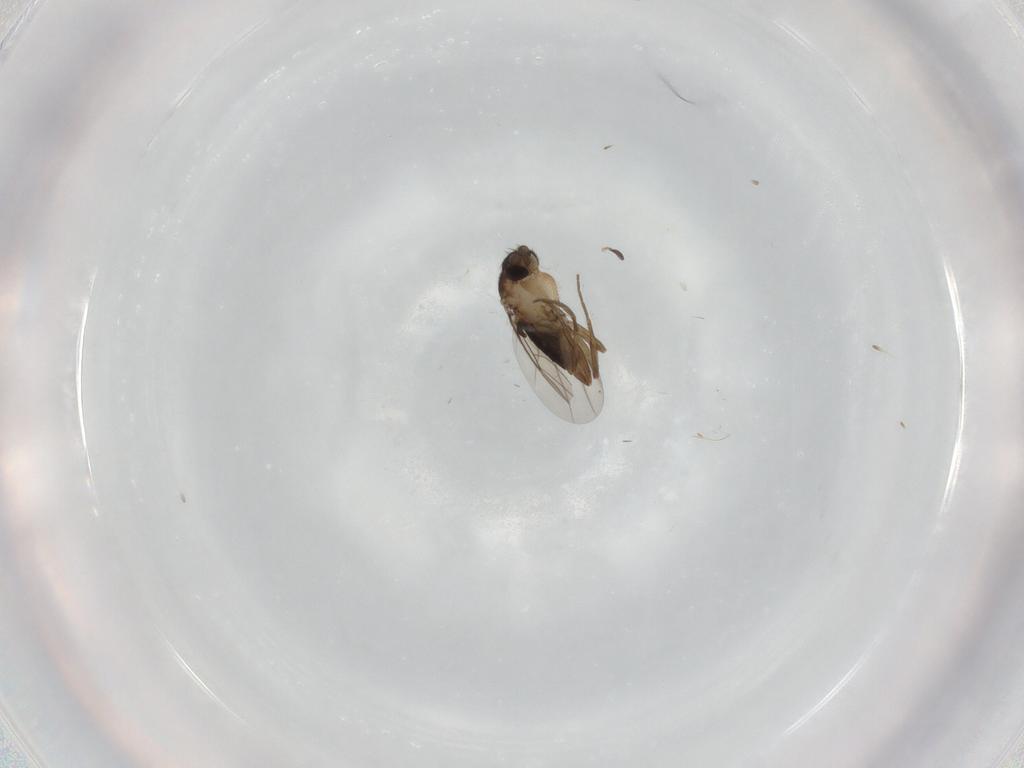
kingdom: Animalia
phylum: Arthropoda
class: Insecta
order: Diptera
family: Phoridae
